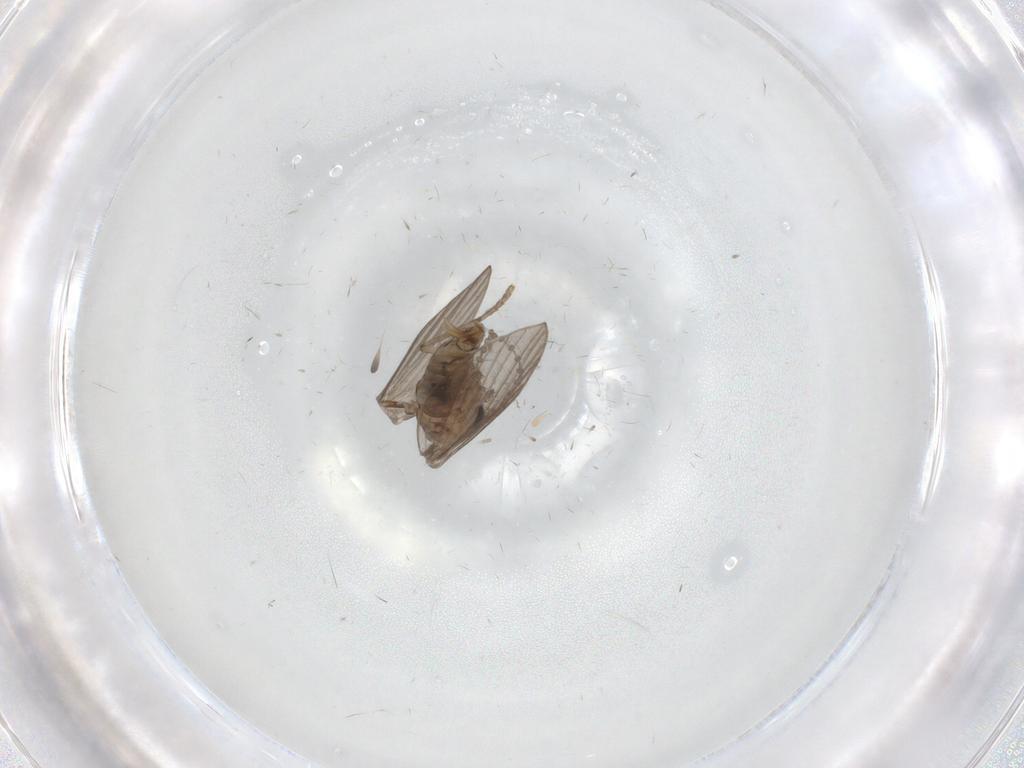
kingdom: Animalia
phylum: Arthropoda
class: Insecta
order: Diptera
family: Psychodidae
